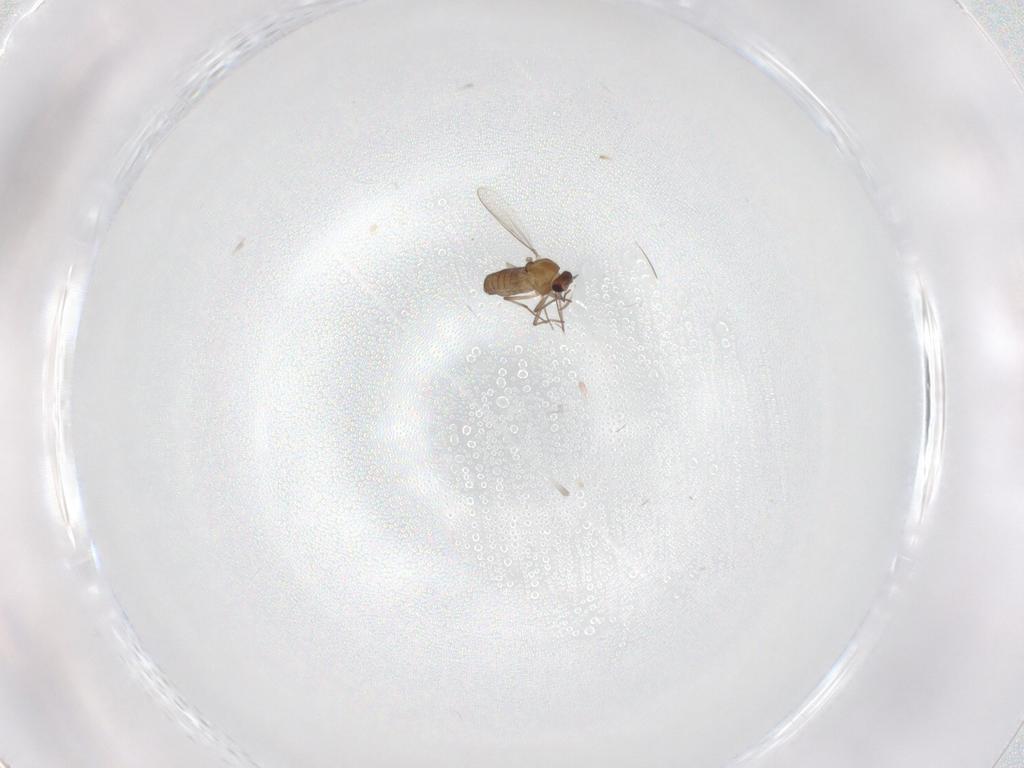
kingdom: Animalia
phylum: Arthropoda
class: Insecta
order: Diptera
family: Chironomidae
